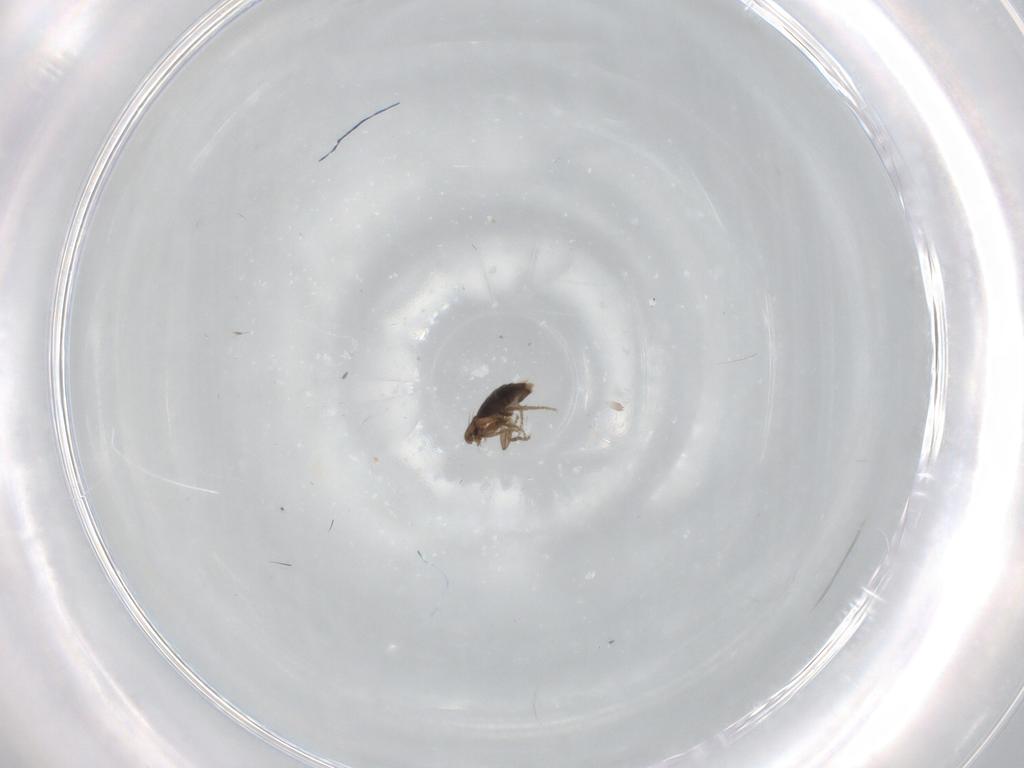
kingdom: Animalia
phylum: Arthropoda
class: Insecta
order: Diptera
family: Phoridae
